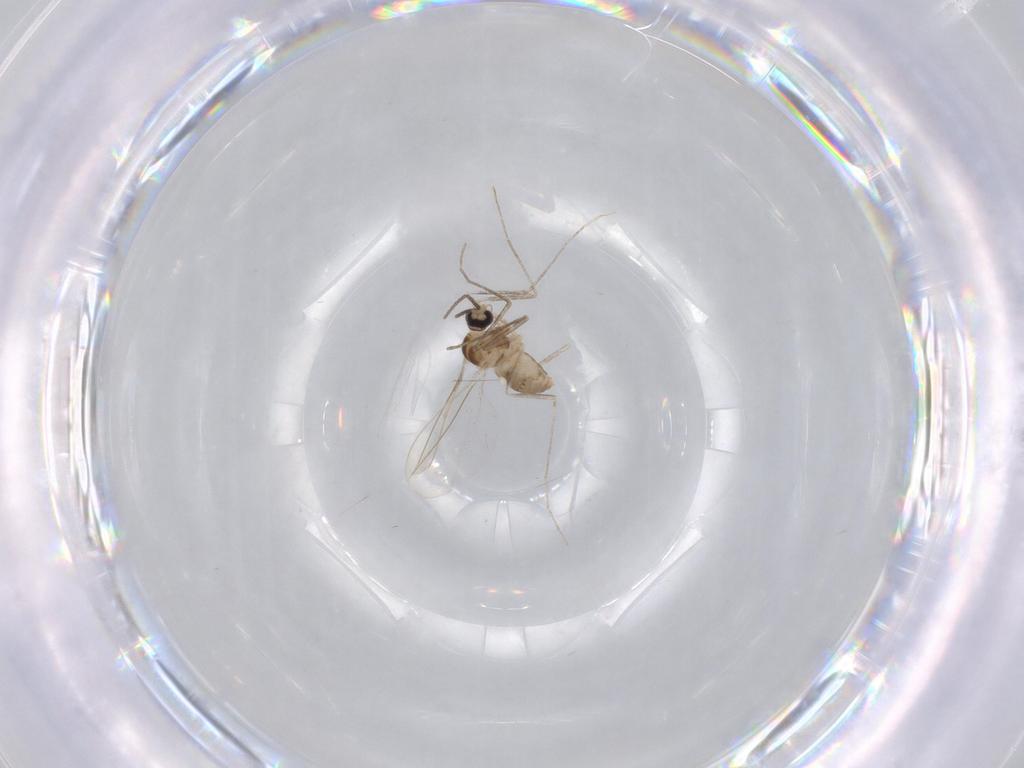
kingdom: Animalia
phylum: Arthropoda
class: Insecta
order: Diptera
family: Cecidomyiidae
